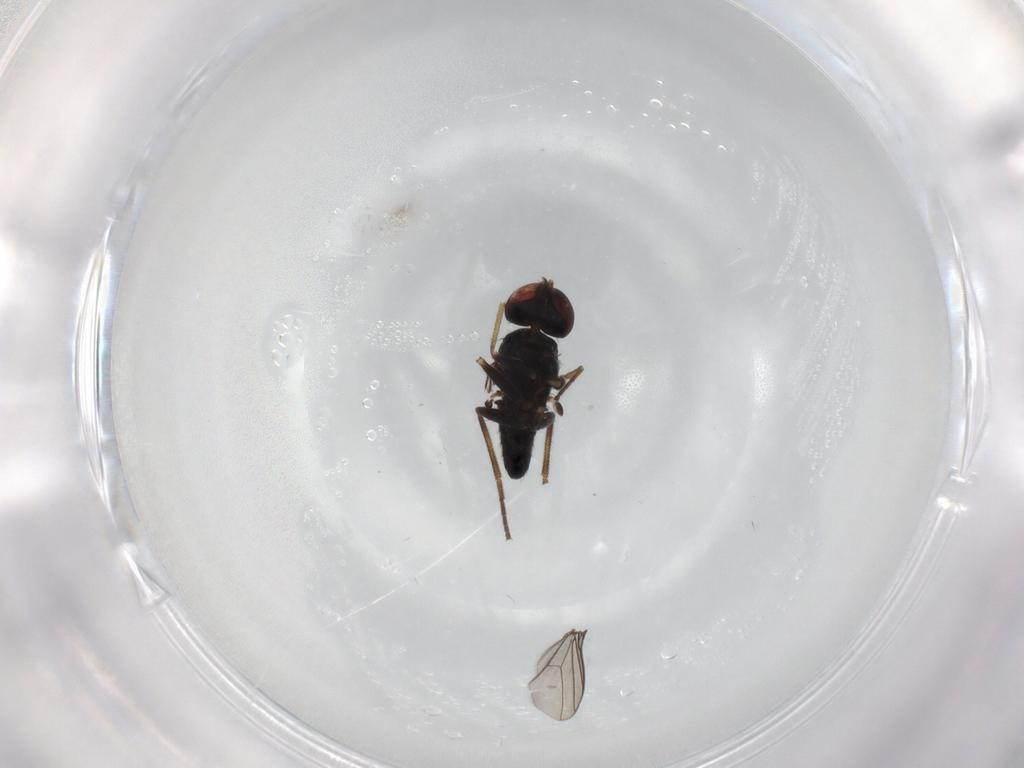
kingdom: Animalia
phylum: Arthropoda
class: Insecta
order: Diptera
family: Dolichopodidae
